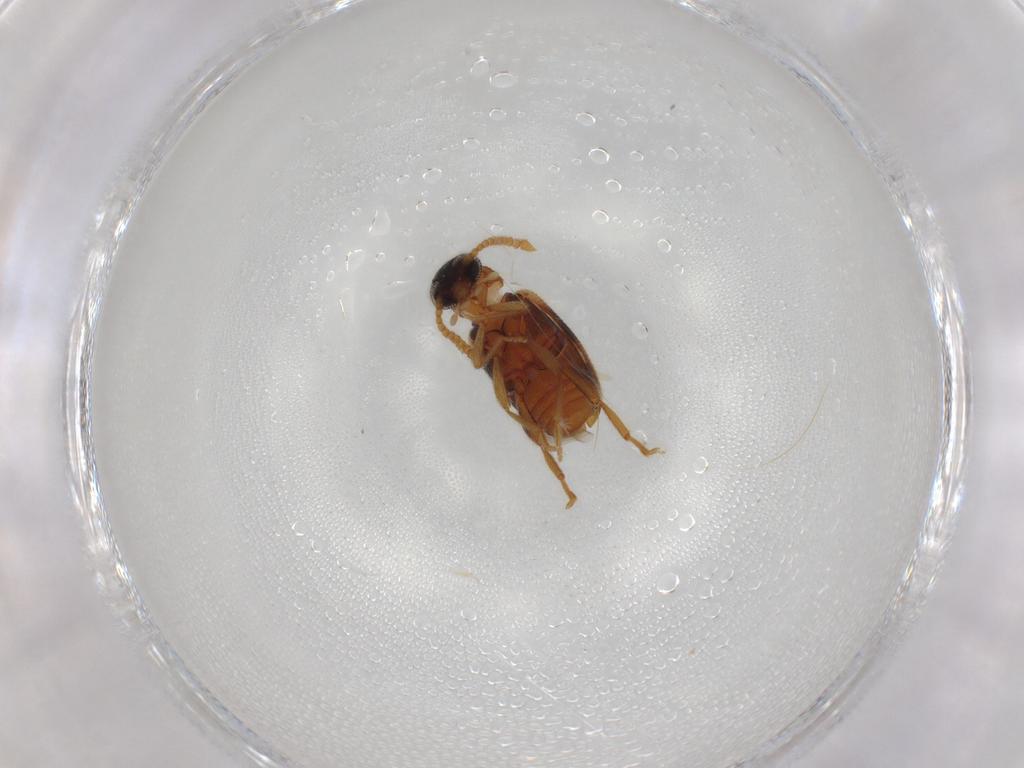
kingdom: Animalia
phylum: Arthropoda
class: Insecta
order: Coleoptera
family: Aderidae
